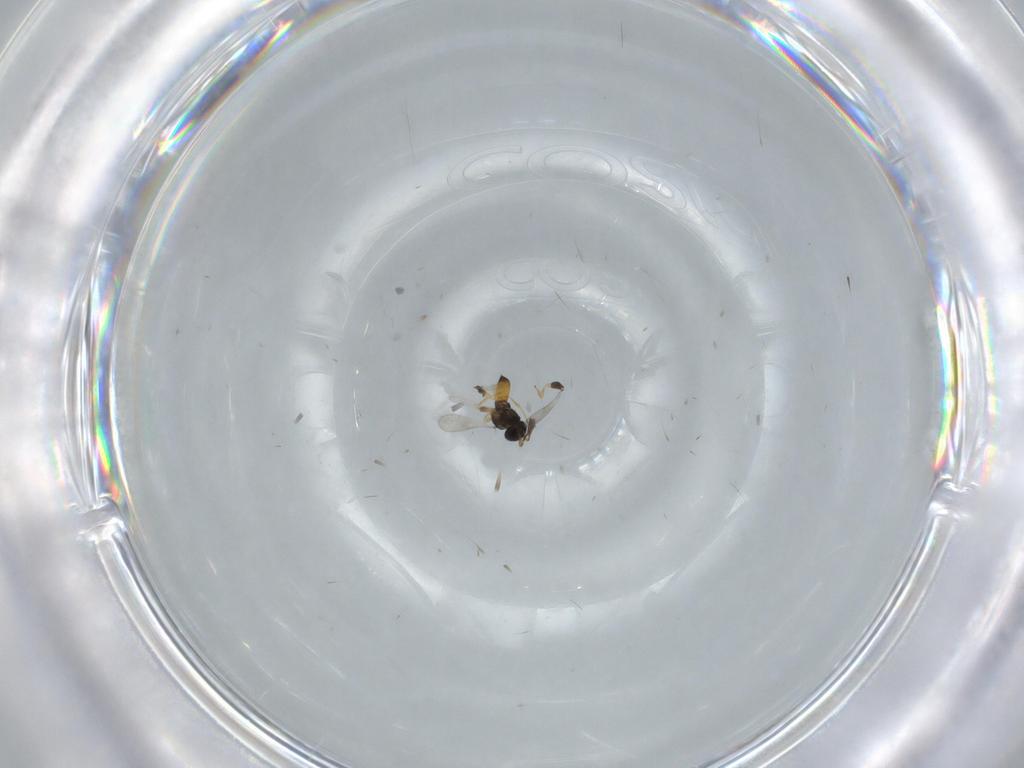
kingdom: Animalia
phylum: Arthropoda
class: Insecta
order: Hymenoptera
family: Scelionidae
